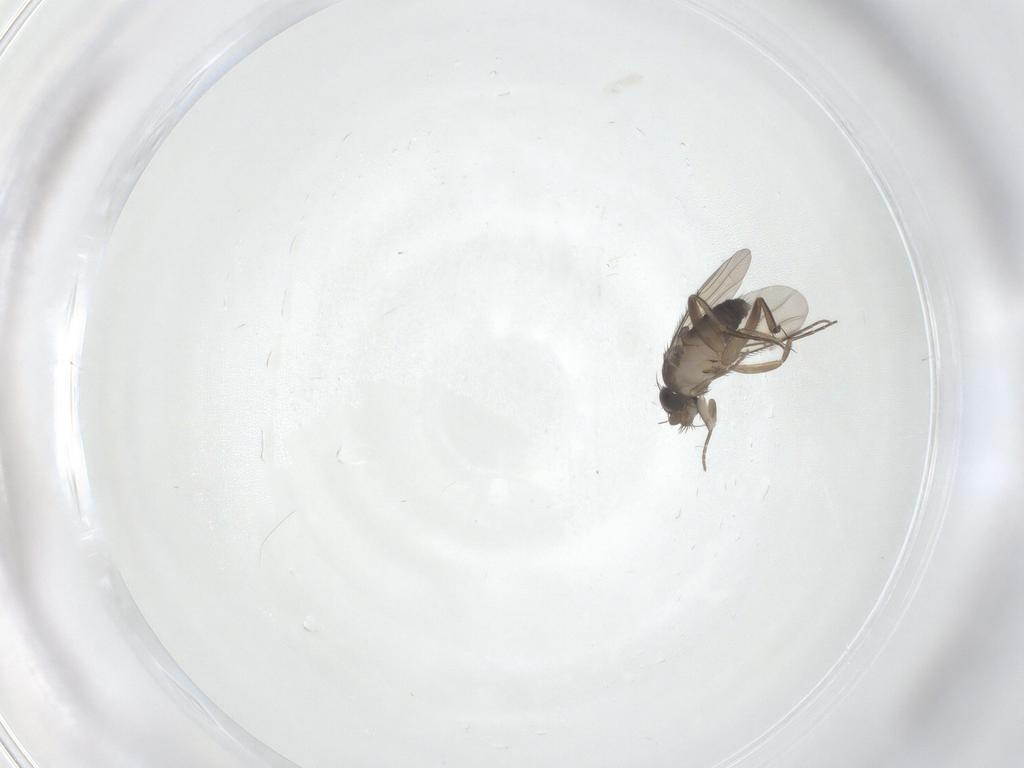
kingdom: Animalia
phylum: Arthropoda
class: Insecta
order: Diptera
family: Phoridae
